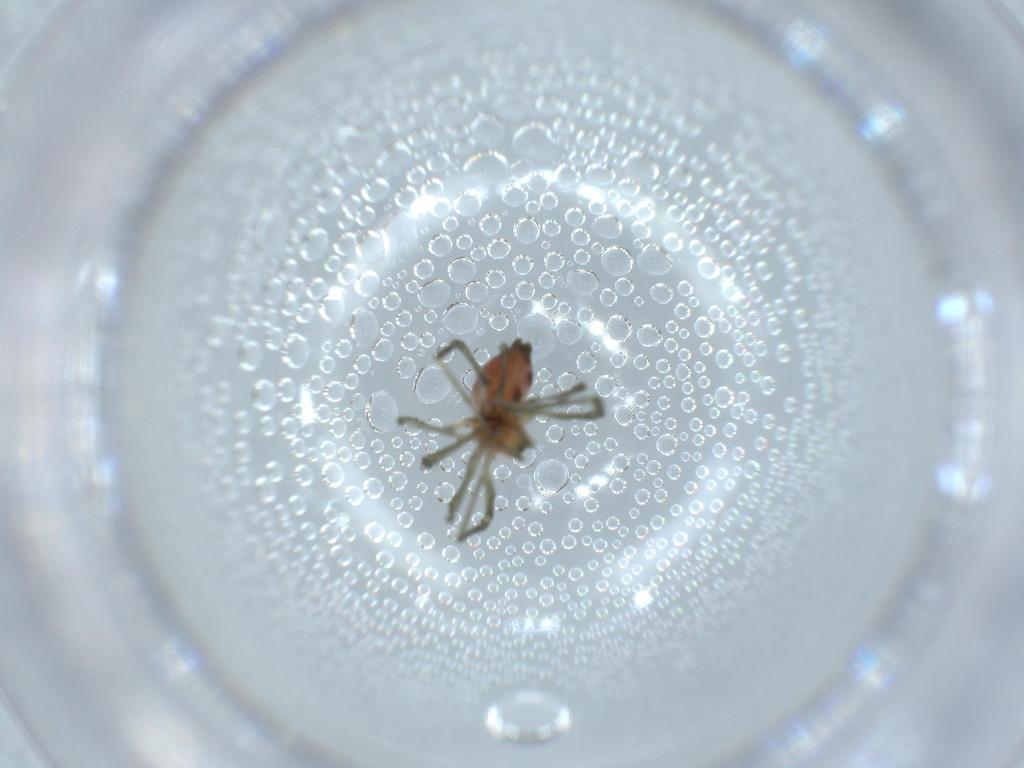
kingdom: Animalia
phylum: Arthropoda
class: Arachnida
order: Araneae
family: Linyphiidae
